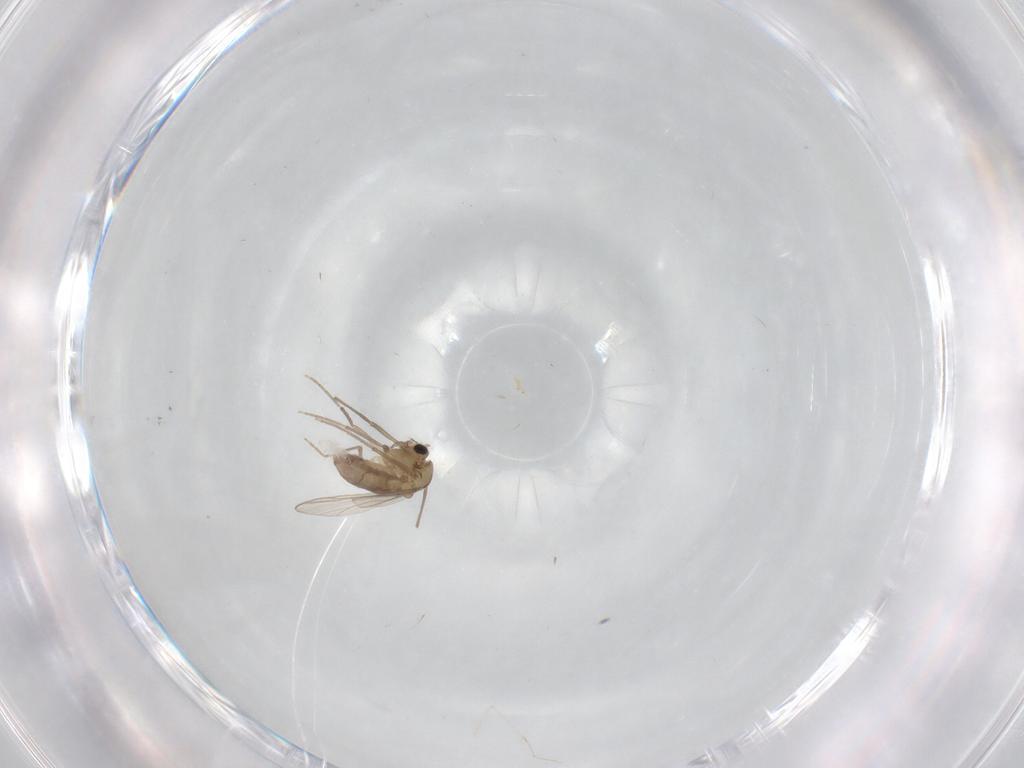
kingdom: Animalia
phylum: Arthropoda
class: Insecta
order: Diptera
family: Chironomidae
